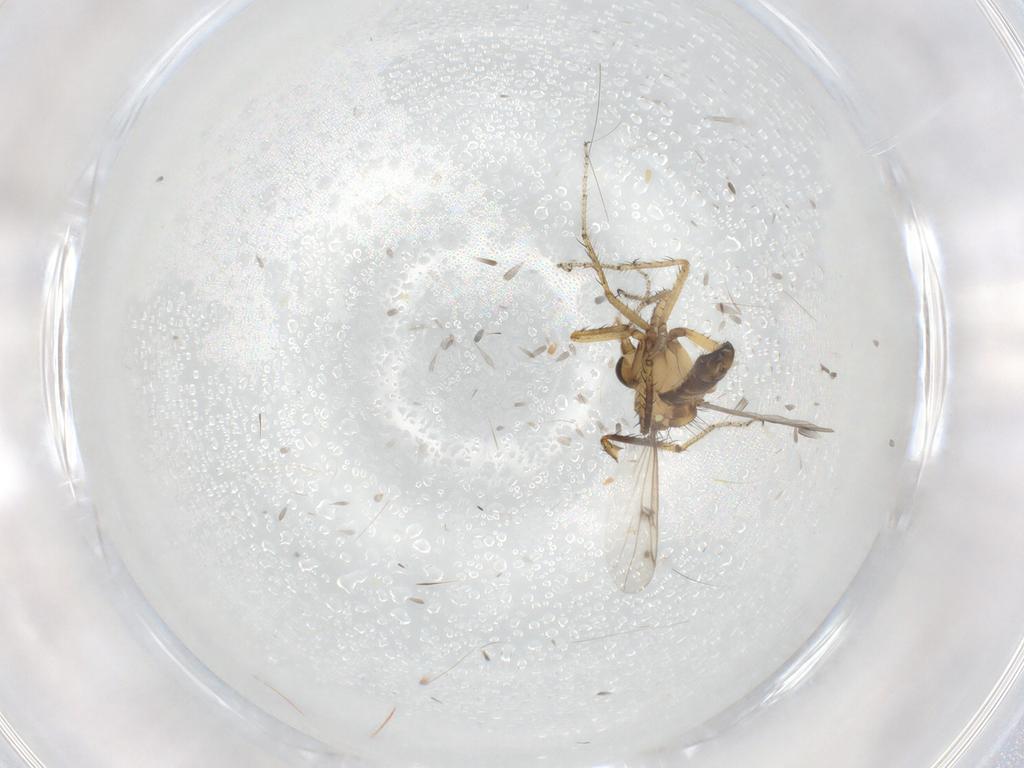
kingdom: Animalia
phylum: Arthropoda
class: Insecta
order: Diptera
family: Ceratopogonidae
